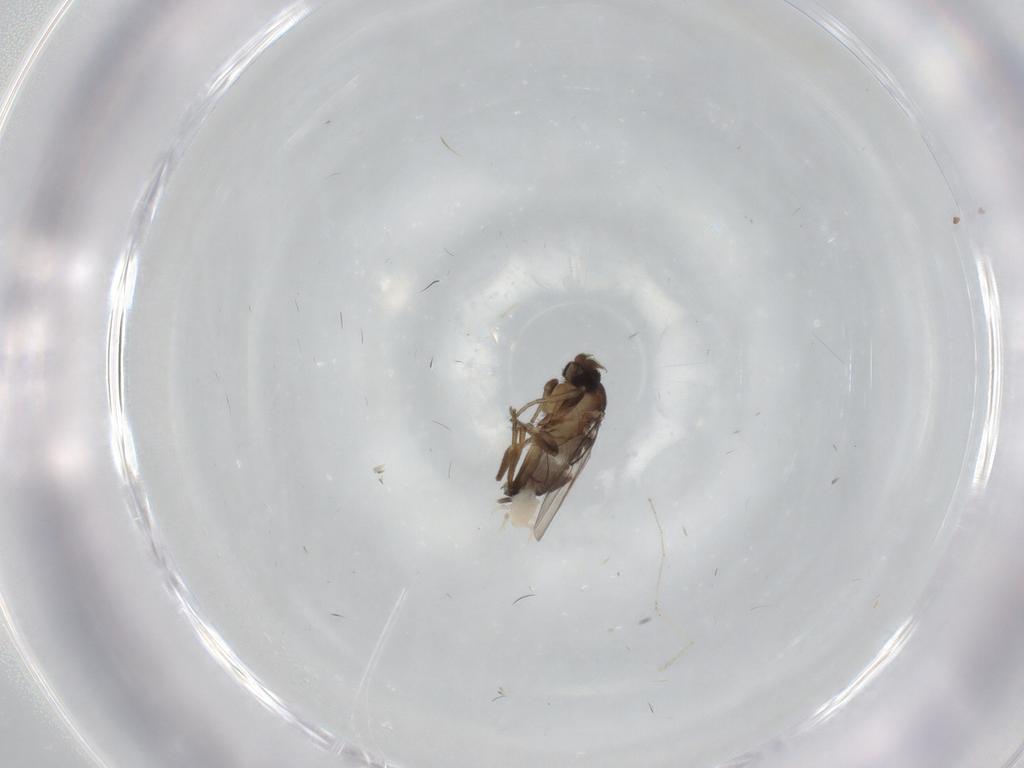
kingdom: Animalia
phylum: Arthropoda
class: Insecta
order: Diptera
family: Phoridae
